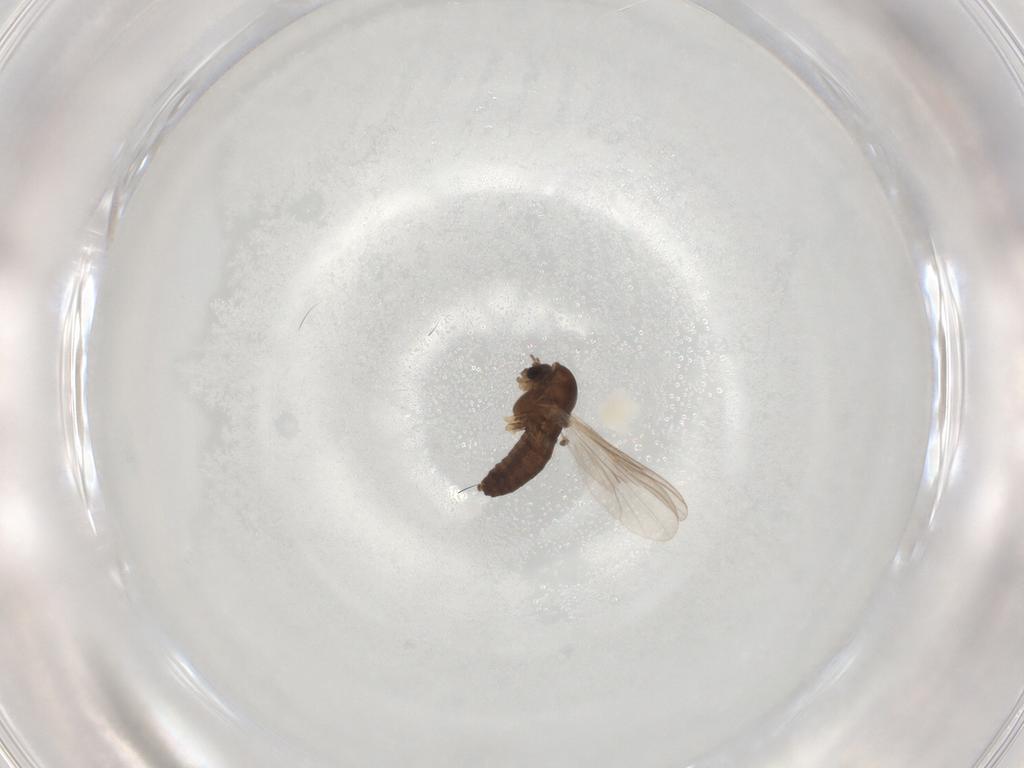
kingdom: Animalia
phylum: Arthropoda
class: Insecta
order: Diptera
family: Chironomidae
